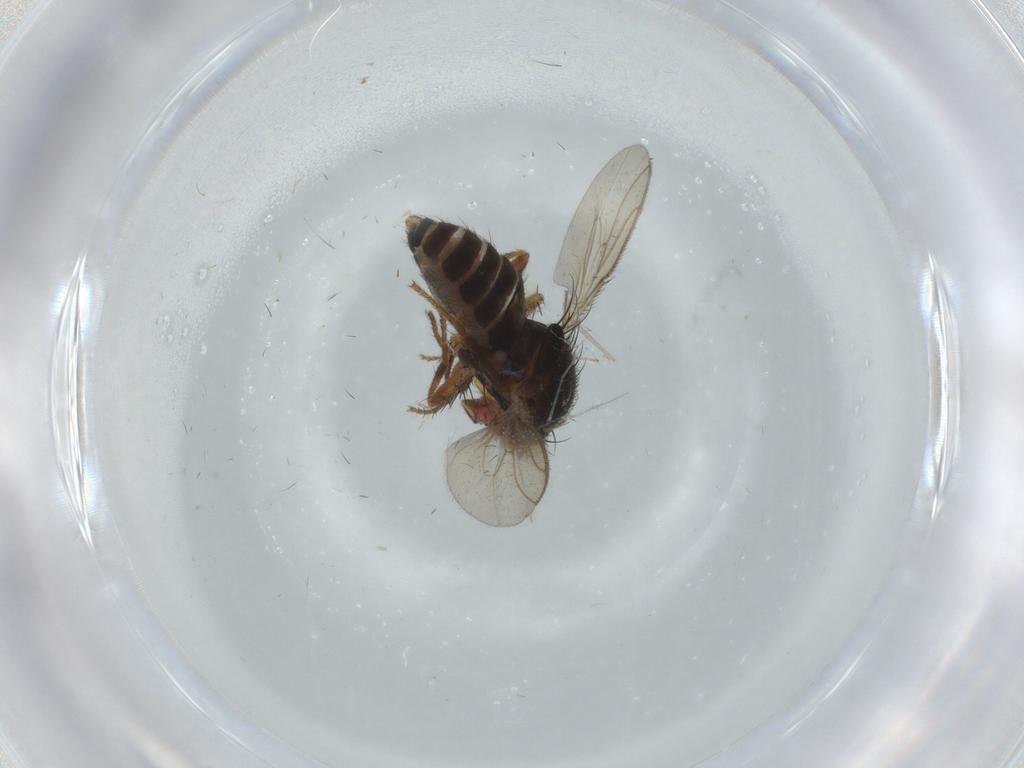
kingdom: Animalia
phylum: Arthropoda
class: Insecta
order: Diptera
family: Sphaeroceridae
